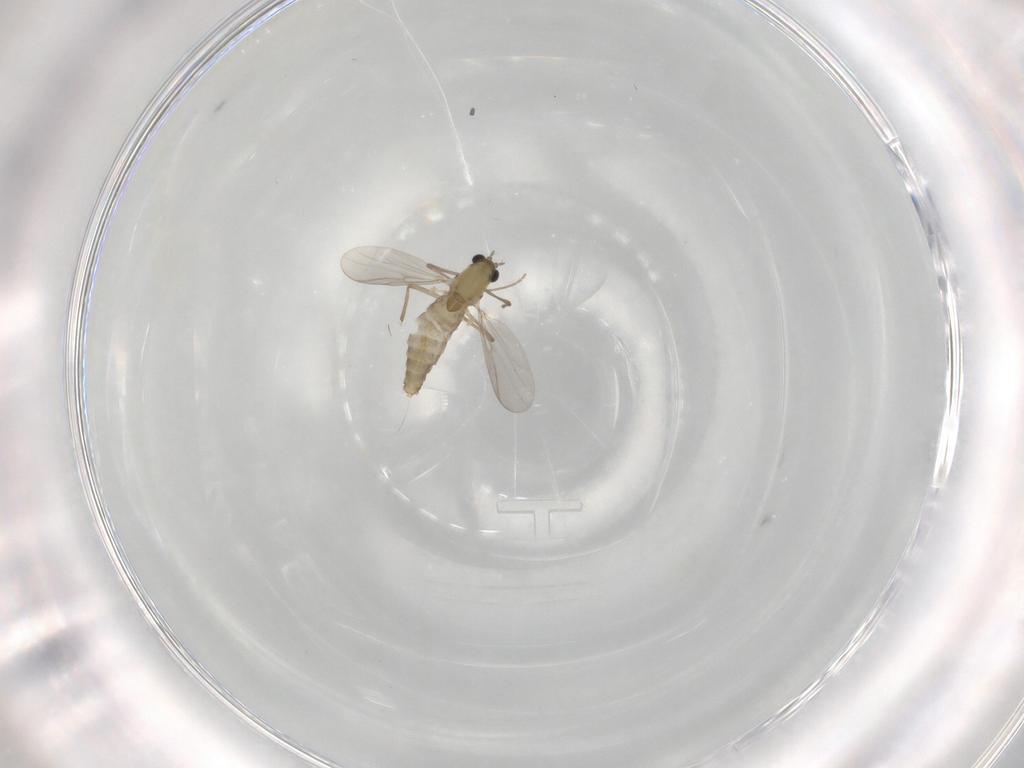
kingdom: Animalia
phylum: Arthropoda
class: Insecta
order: Diptera
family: Chironomidae
